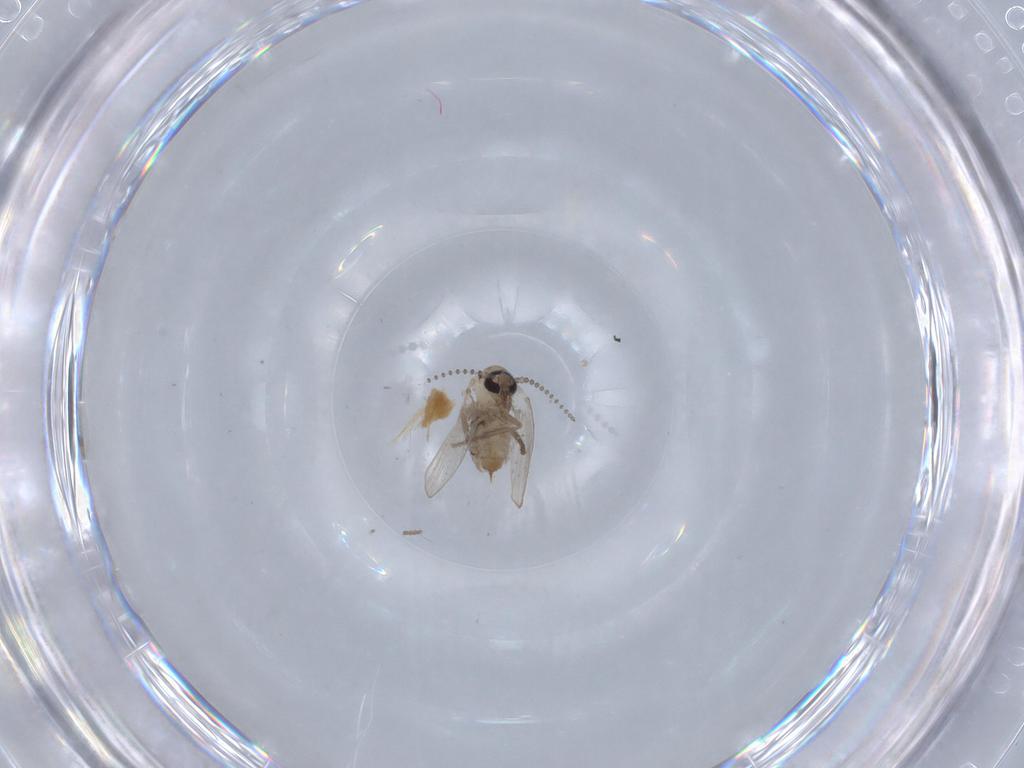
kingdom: Animalia
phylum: Arthropoda
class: Insecta
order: Diptera
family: Psychodidae
